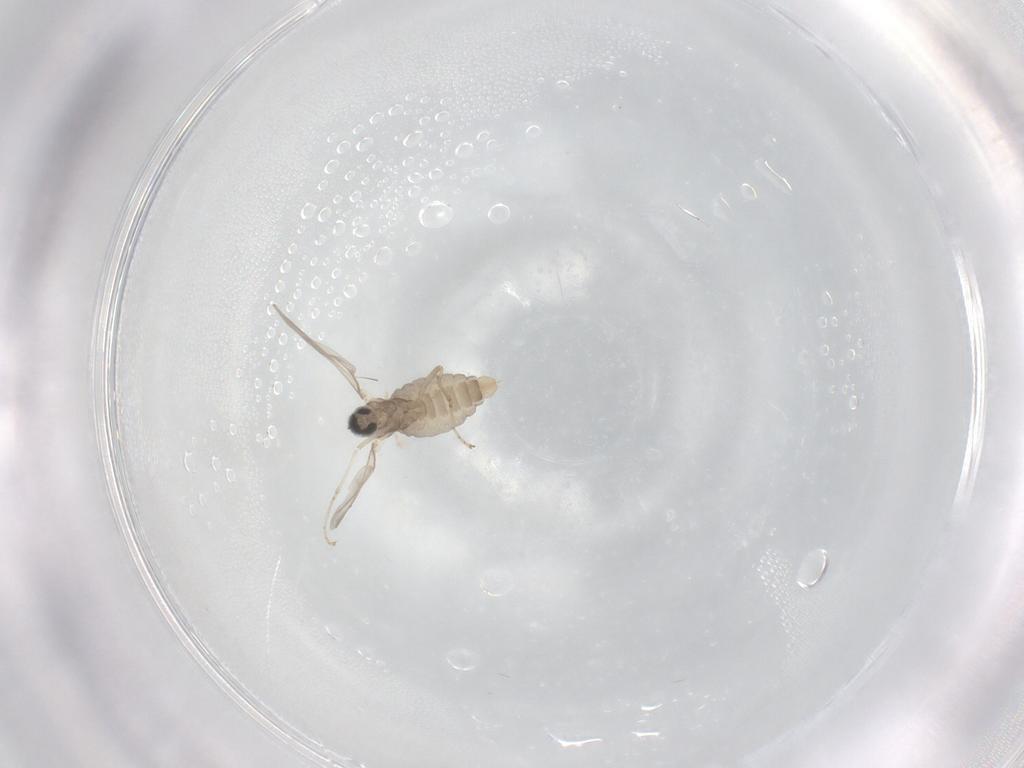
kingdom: Animalia
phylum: Arthropoda
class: Insecta
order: Diptera
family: Cecidomyiidae
